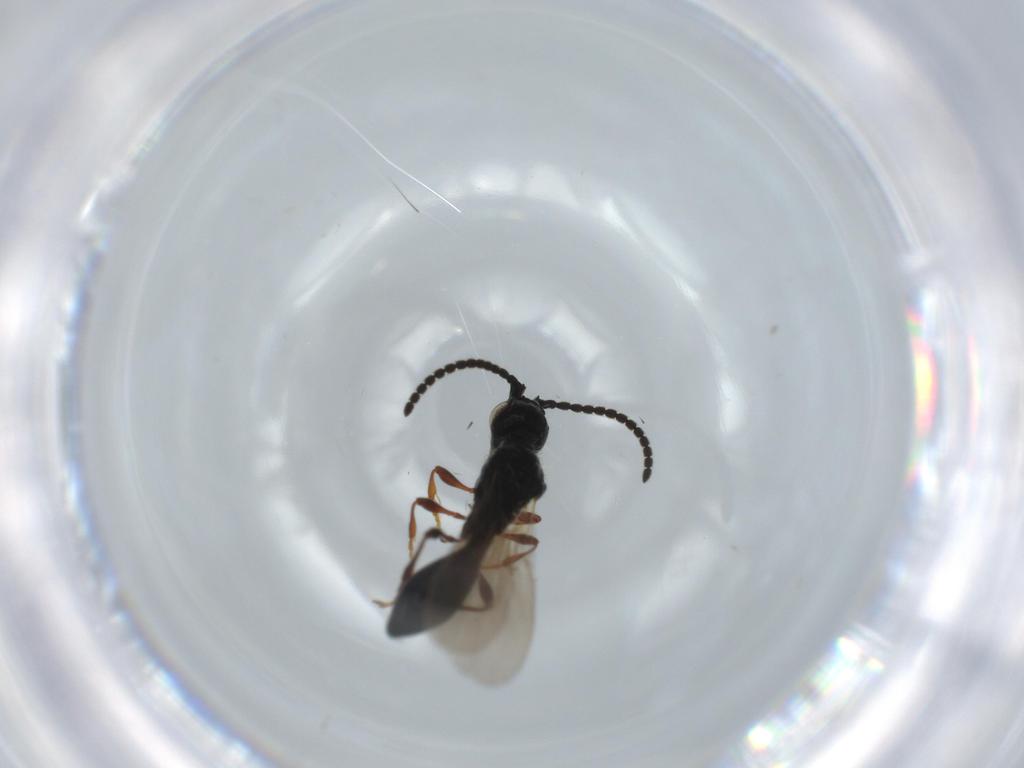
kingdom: Animalia
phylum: Arthropoda
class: Insecta
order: Hymenoptera
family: Diapriidae
